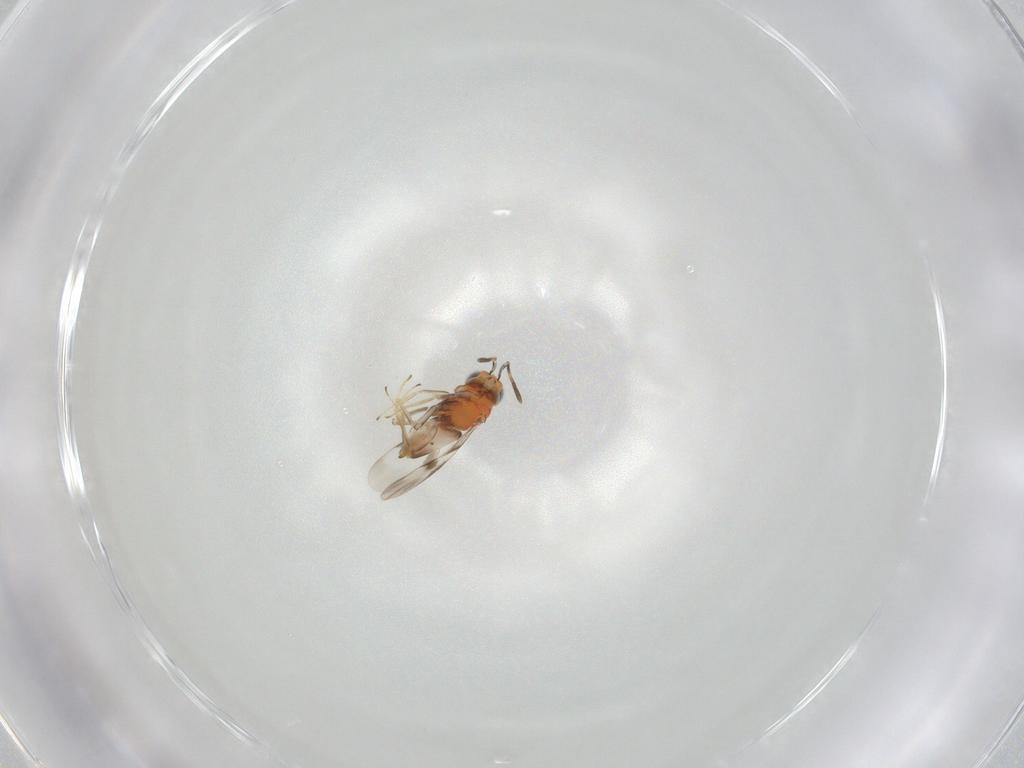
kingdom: Animalia
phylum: Arthropoda
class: Insecta
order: Hymenoptera
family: Encyrtidae
